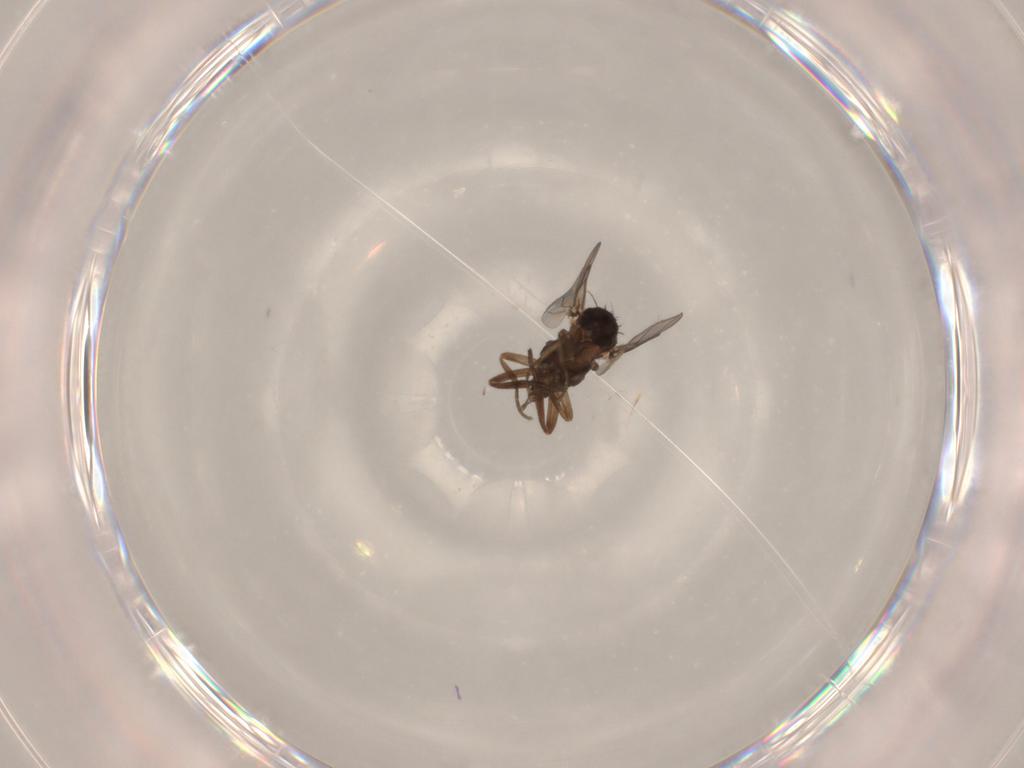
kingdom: Animalia
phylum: Arthropoda
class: Insecta
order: Diptera
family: Phoridae
